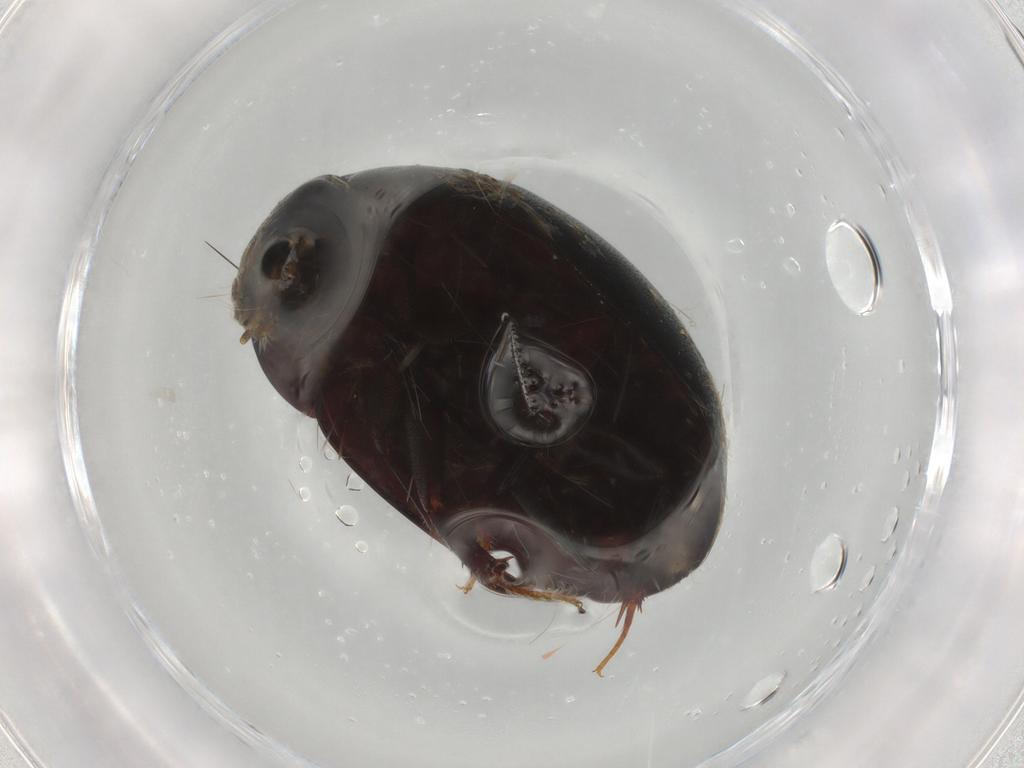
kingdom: Animalia
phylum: Arthropoda
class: Insecta
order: Coleoptera
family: Hydrophilidae
